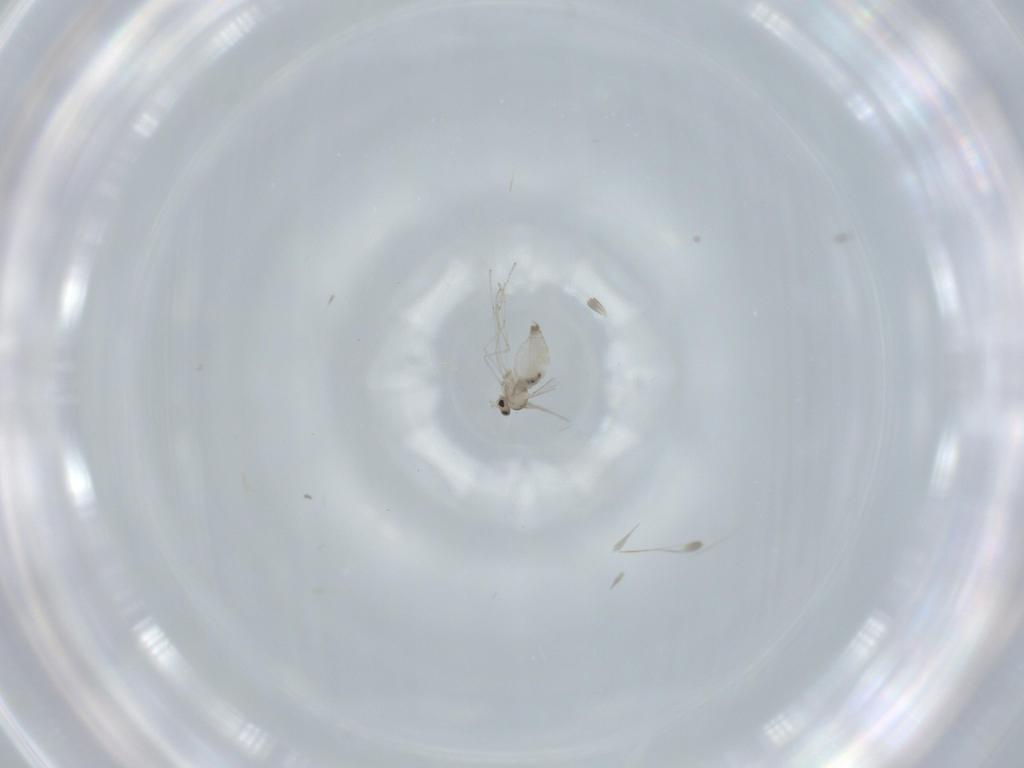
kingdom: Animalia
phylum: Arthropoda
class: Insecta
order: Diptera
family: Cecidomyiidae
